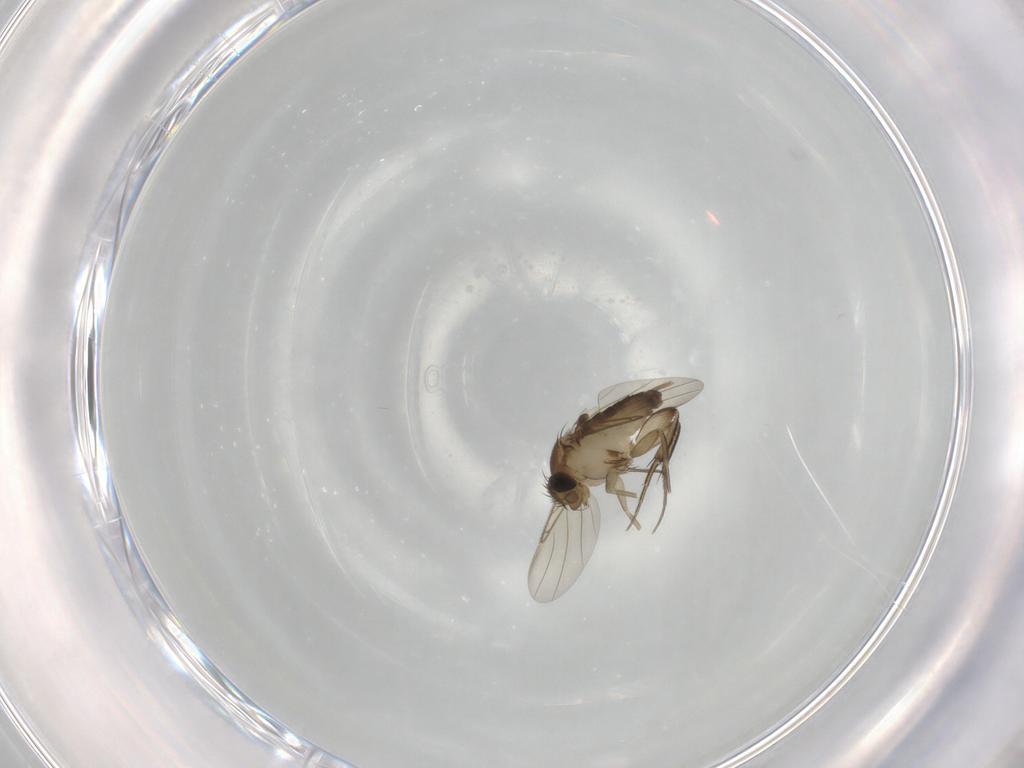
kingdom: Animalia
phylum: Arthropoda
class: Insecta
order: Diptera
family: Phoridae
